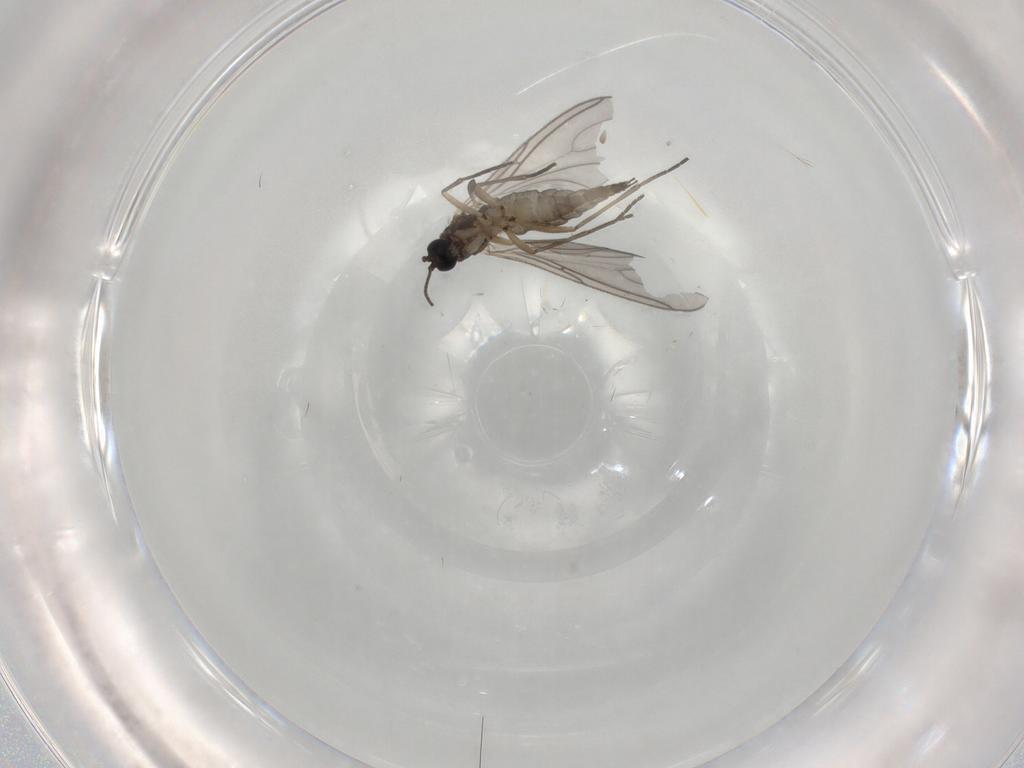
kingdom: Animalia
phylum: Arthropoda
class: Insecta
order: Diptera
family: Sciaridae
